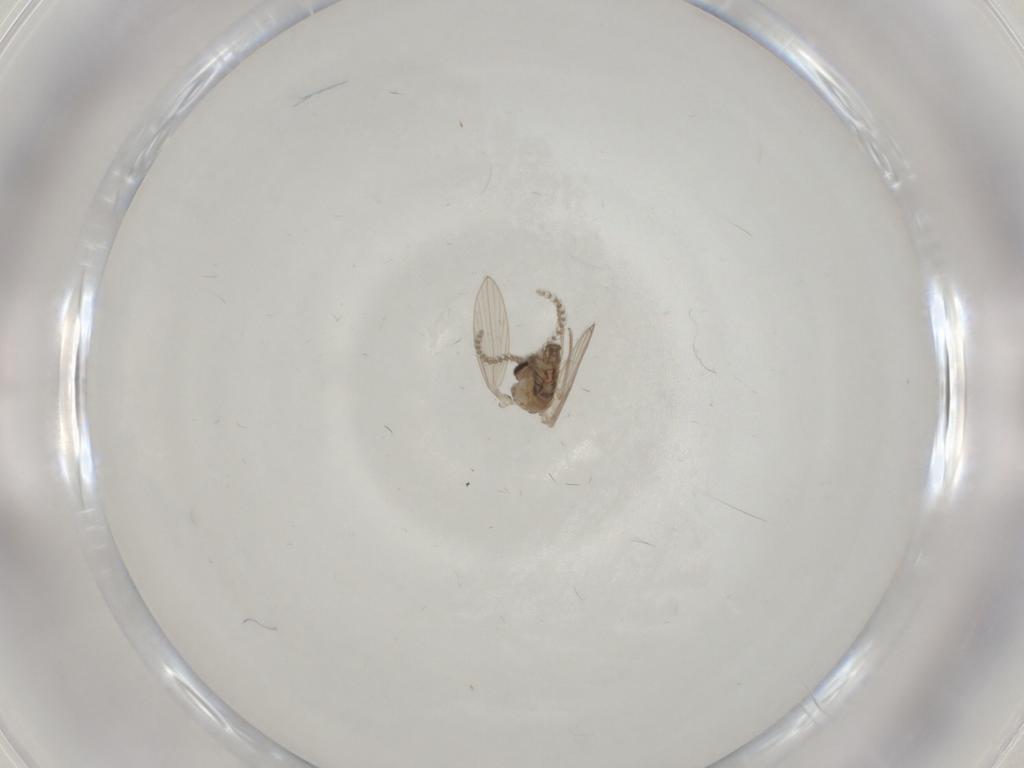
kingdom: Animalia
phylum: Arthropoda
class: Insecta
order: Diptera
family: Psychodidae
